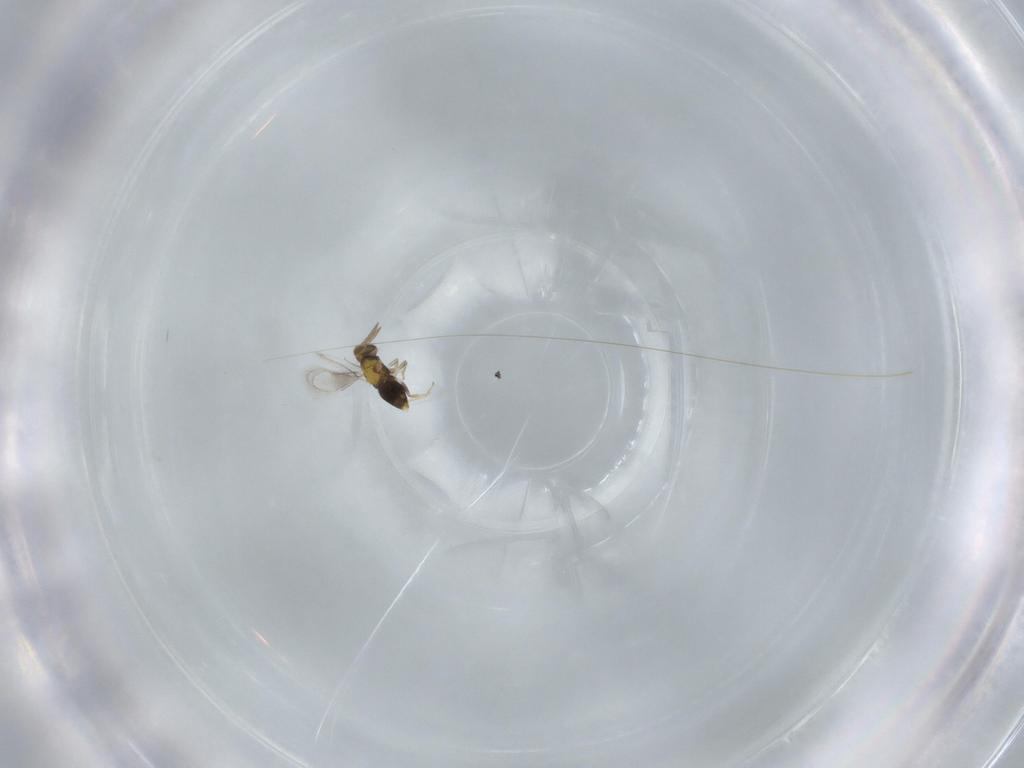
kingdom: Animalia
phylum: Arthropoda
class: Insecta
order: Hymenoptera
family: Aphelinidae
